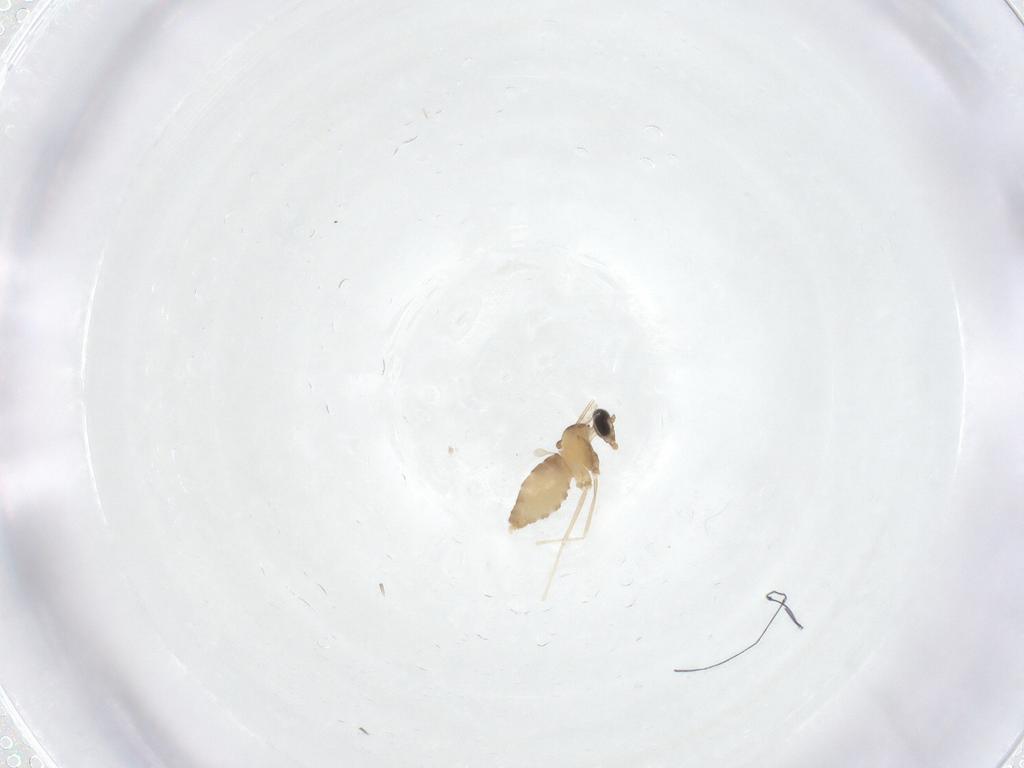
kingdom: Animalia
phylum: Arthropoda
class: Insecta
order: Diptera
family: Cecidomyiidae
